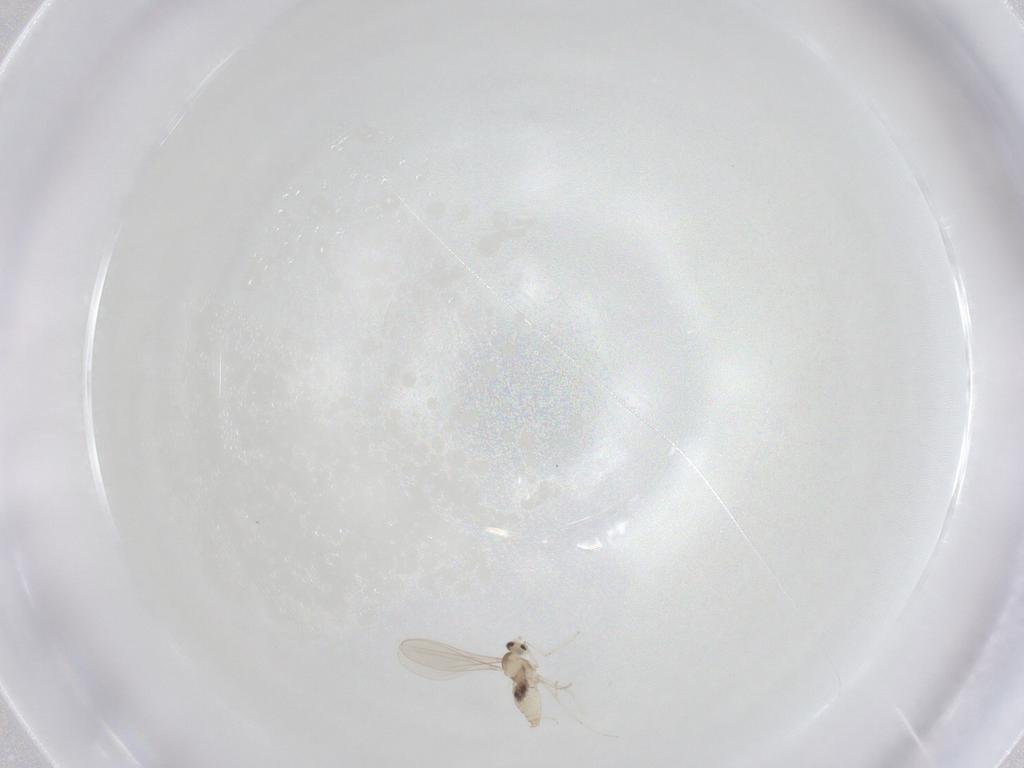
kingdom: Animalia
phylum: Arthropoda
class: Insecta
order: Diptera
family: Cecidomyiidae
